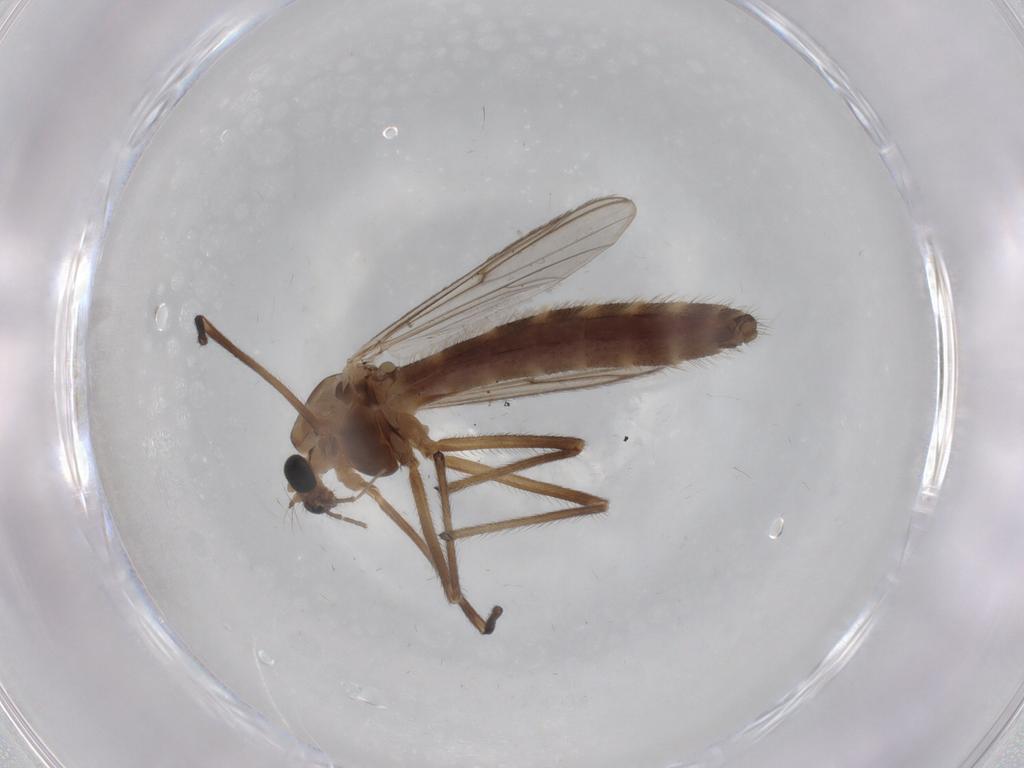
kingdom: Animalia
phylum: Arthropoda
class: Insecta
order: Diptera
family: Chironomidae
